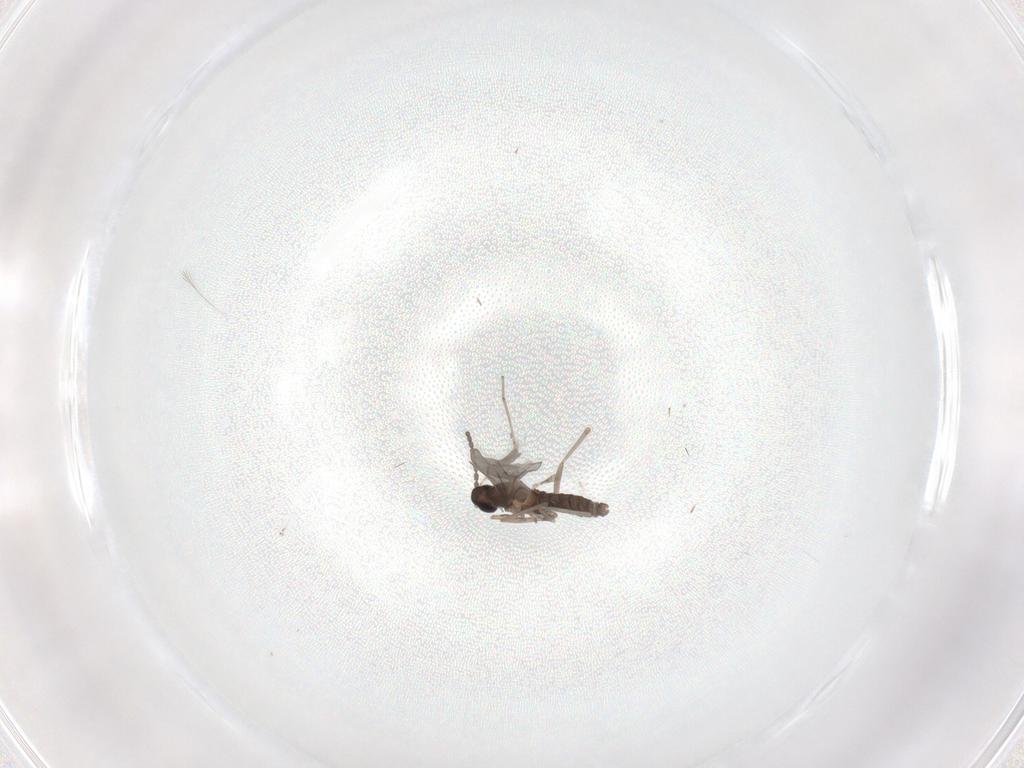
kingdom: Animalia
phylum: Arthropoda
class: Insecta
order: Diptera
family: Cecidomyiidae
